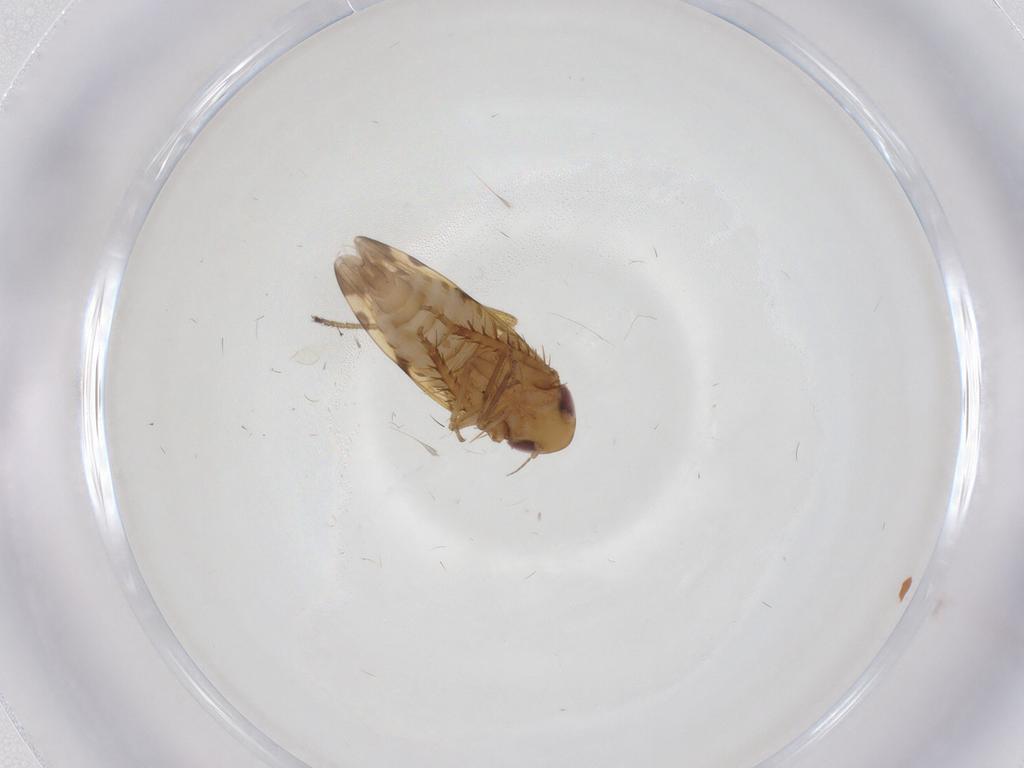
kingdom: Animalia
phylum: Arthropoda
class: Insecta
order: Hemiptera
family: Cicadellidae
